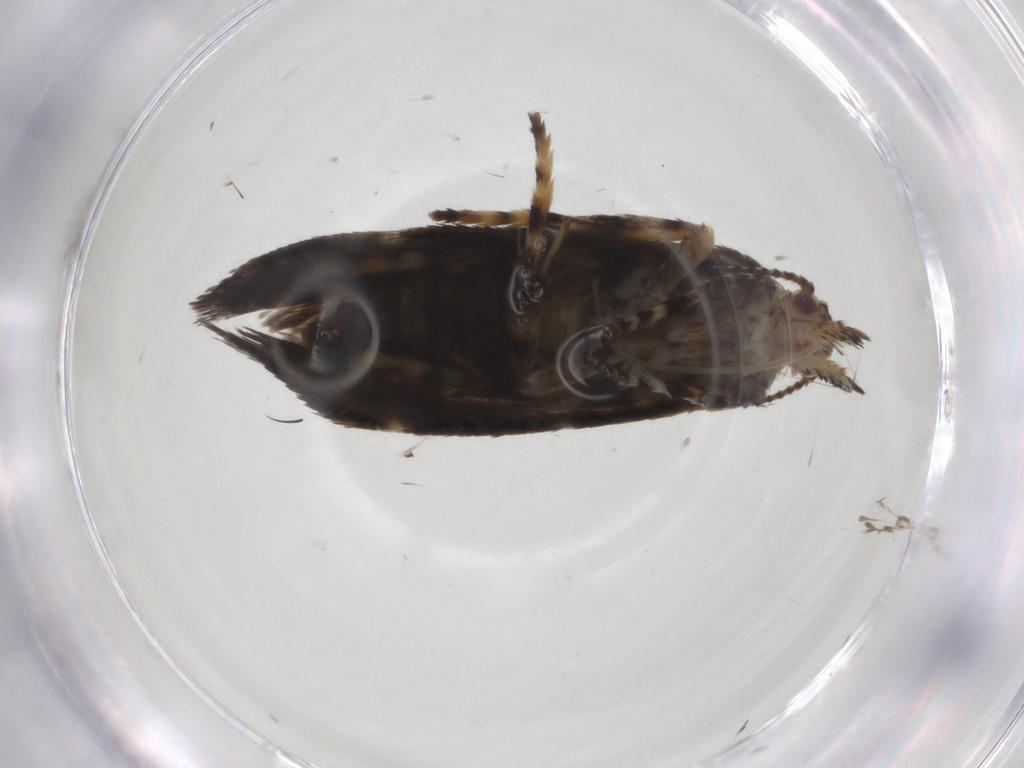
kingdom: Animalia
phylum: Arthropoda
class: Insecta
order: Lepidoptera
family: Choreutidae
